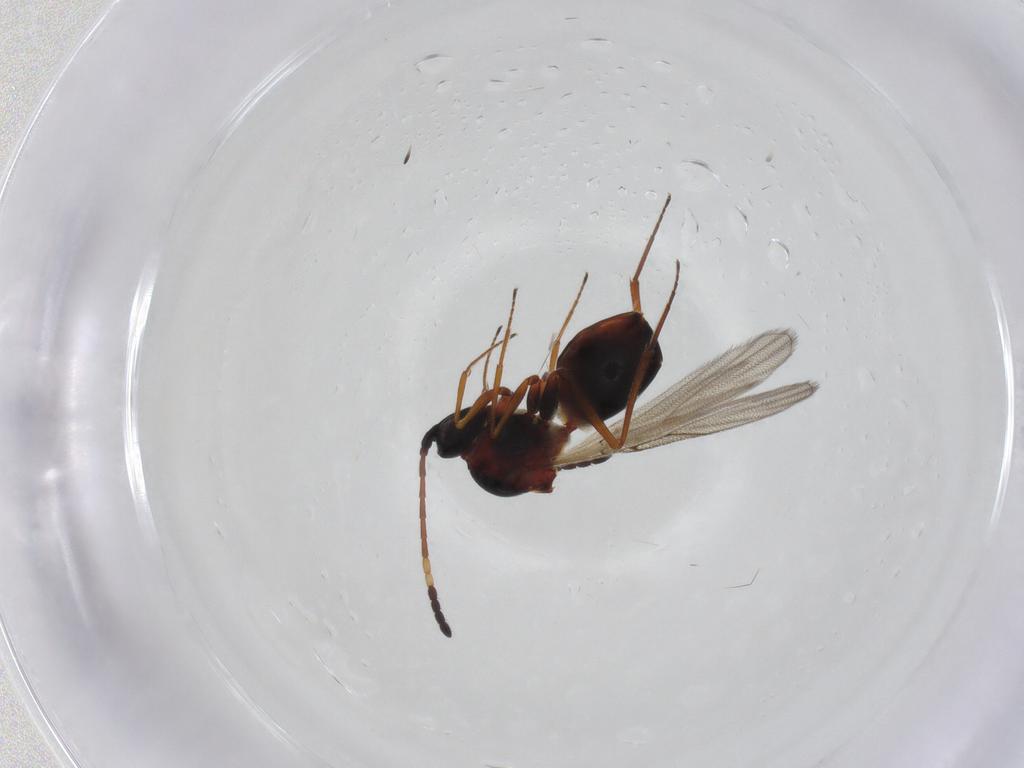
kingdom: Animalia
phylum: Arthropoda
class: Insecta
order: Hymenoptera
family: Figitidae
